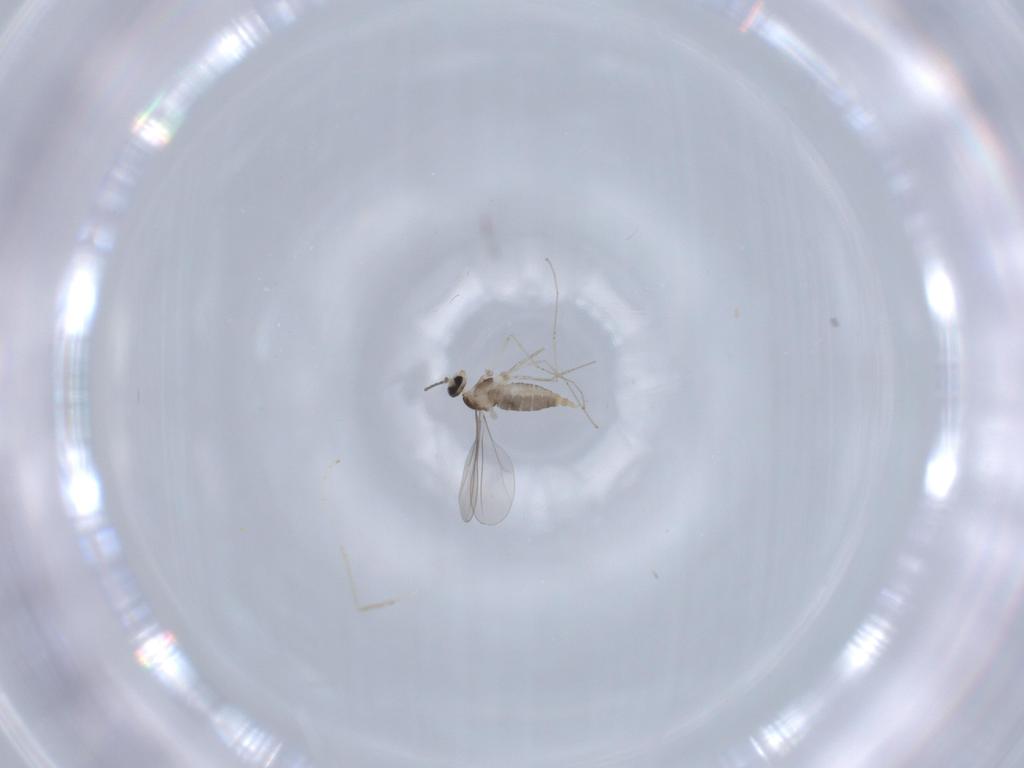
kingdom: Animalia
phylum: Arthropoda
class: Insecta
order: Diptera
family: Cecidomyiidae
